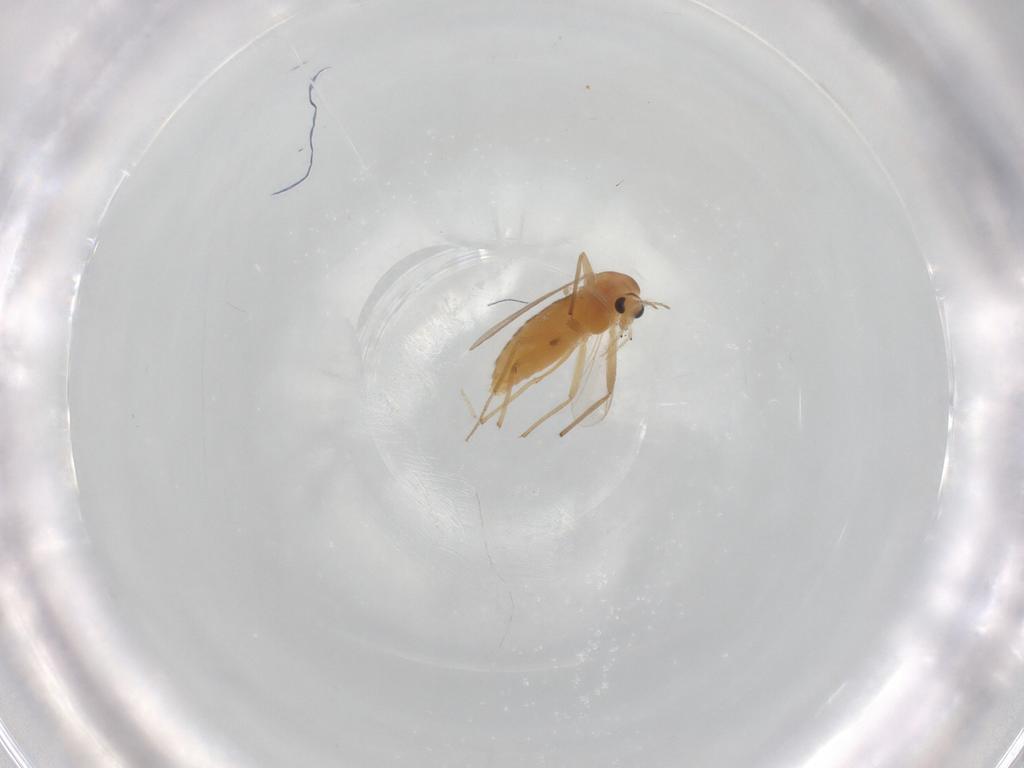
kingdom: Animalia
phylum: Arthropoda
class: Insecta
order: Diptera
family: Chironomidae
